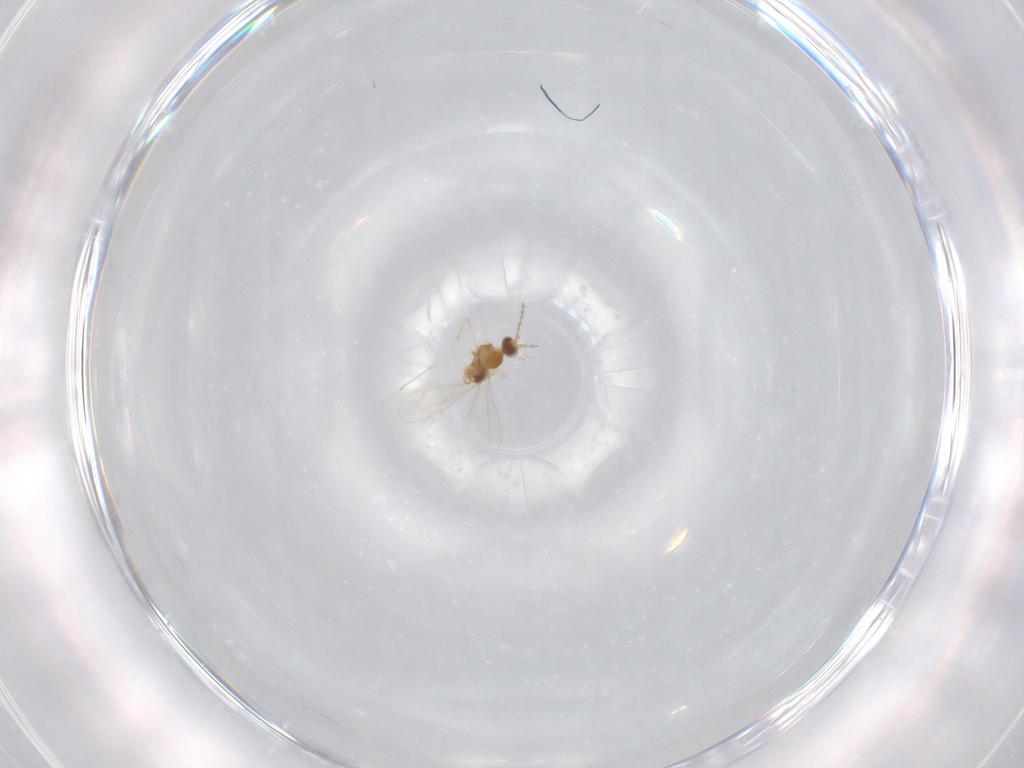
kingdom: Animalia
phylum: Arthropoda
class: Insecta
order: Diptera
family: Cecidomyiidae
